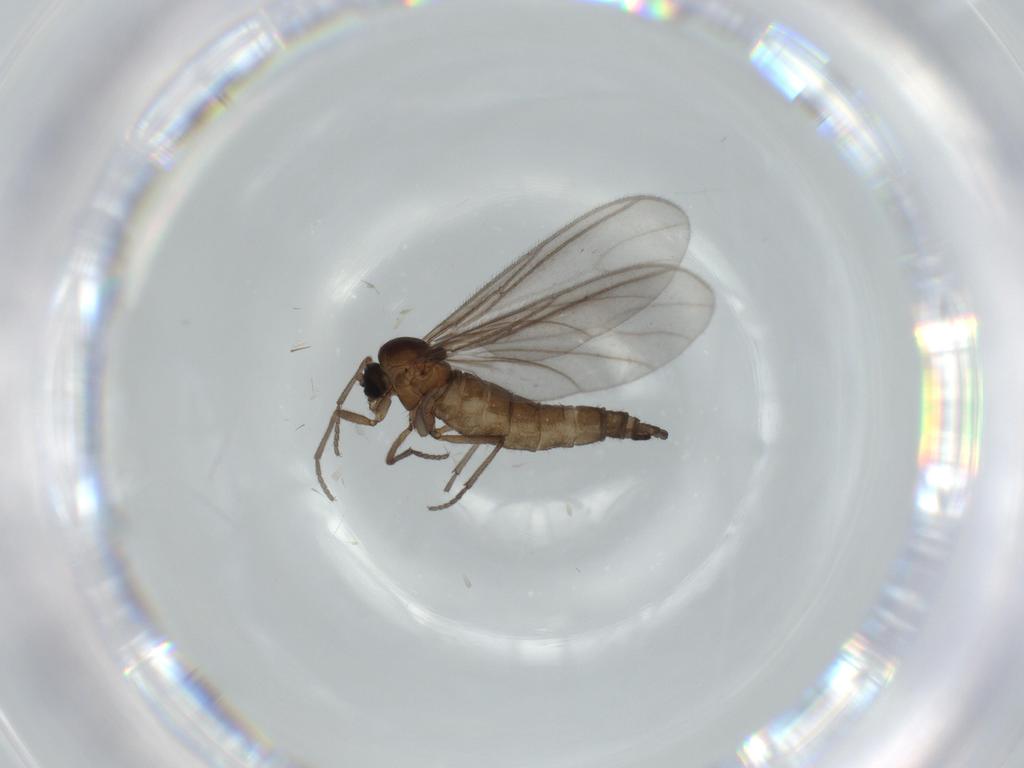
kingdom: Animalia
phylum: Arthropoda
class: Insecta
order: Diptera
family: Sciaridae
